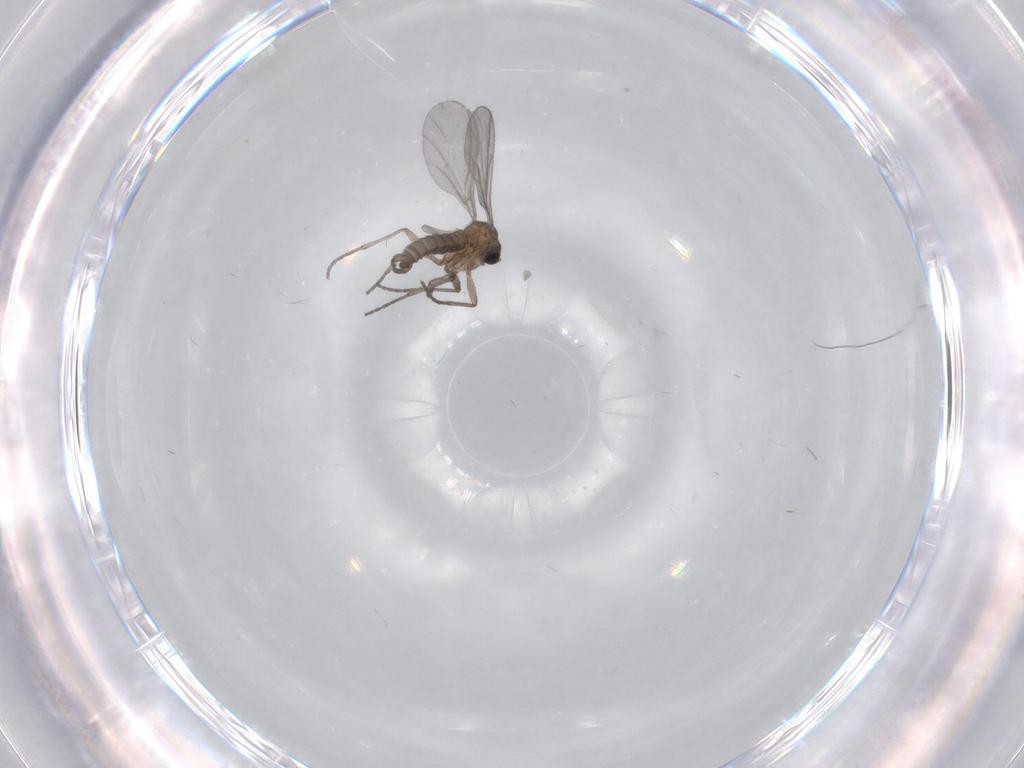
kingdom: Animalia
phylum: Arthropoda
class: Insecta
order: Diptera
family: Sciaridae
